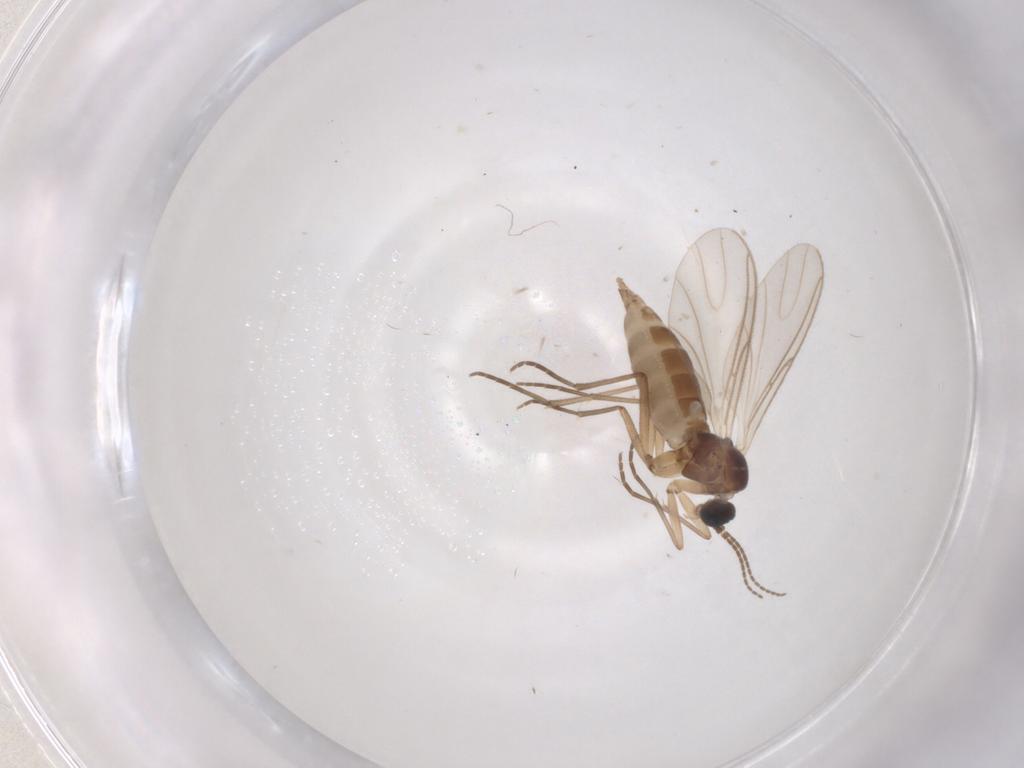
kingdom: Animalia
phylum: Arthropoda
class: Insecta
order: Diptera
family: Sciaridae
